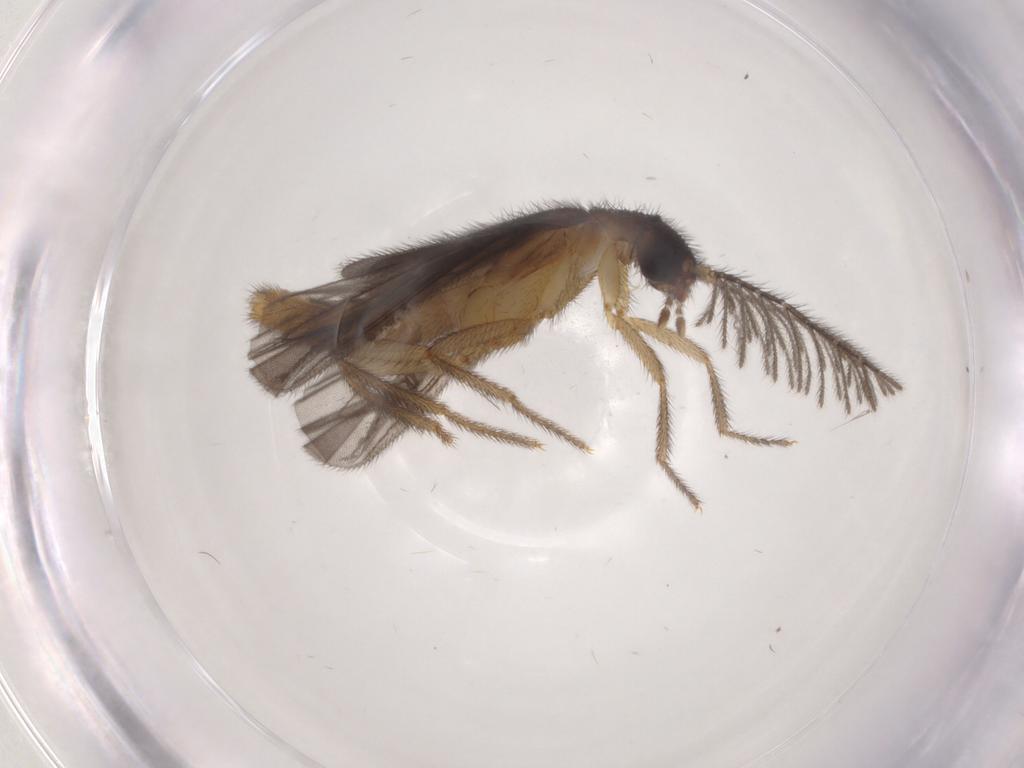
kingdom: Animalia
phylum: Arthropoda
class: Insecta
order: Coleoptera
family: Phengodidae
